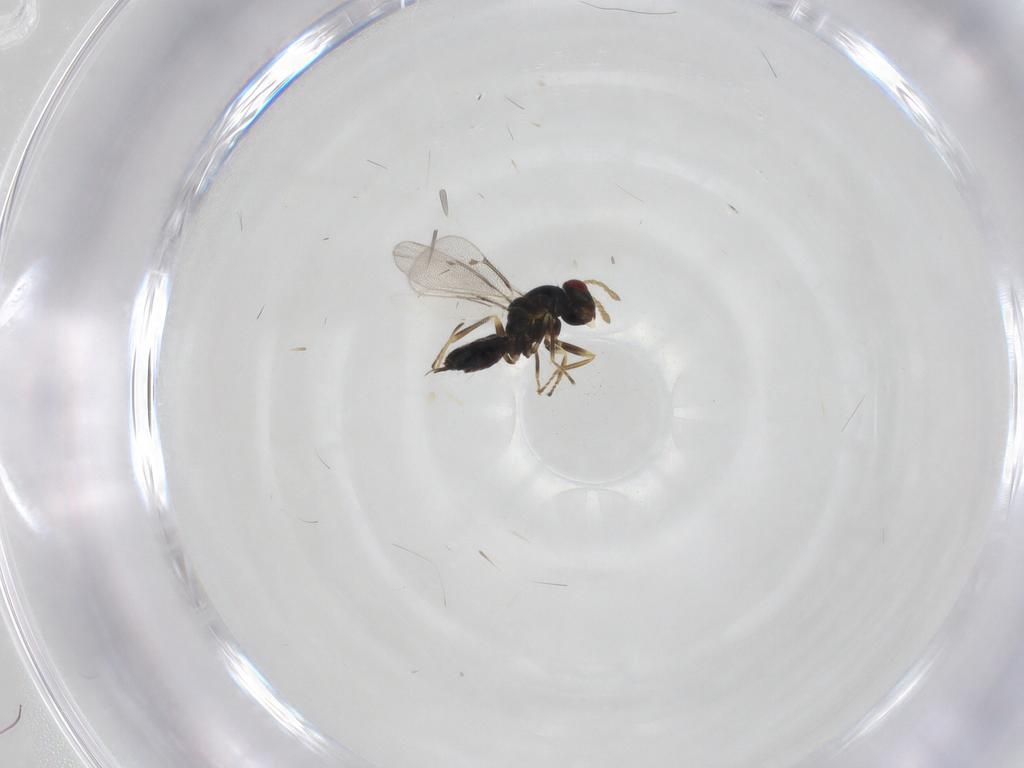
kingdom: Animalia
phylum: Arthropoda
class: Insecta
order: Hymenoptera
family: Eulophidae
